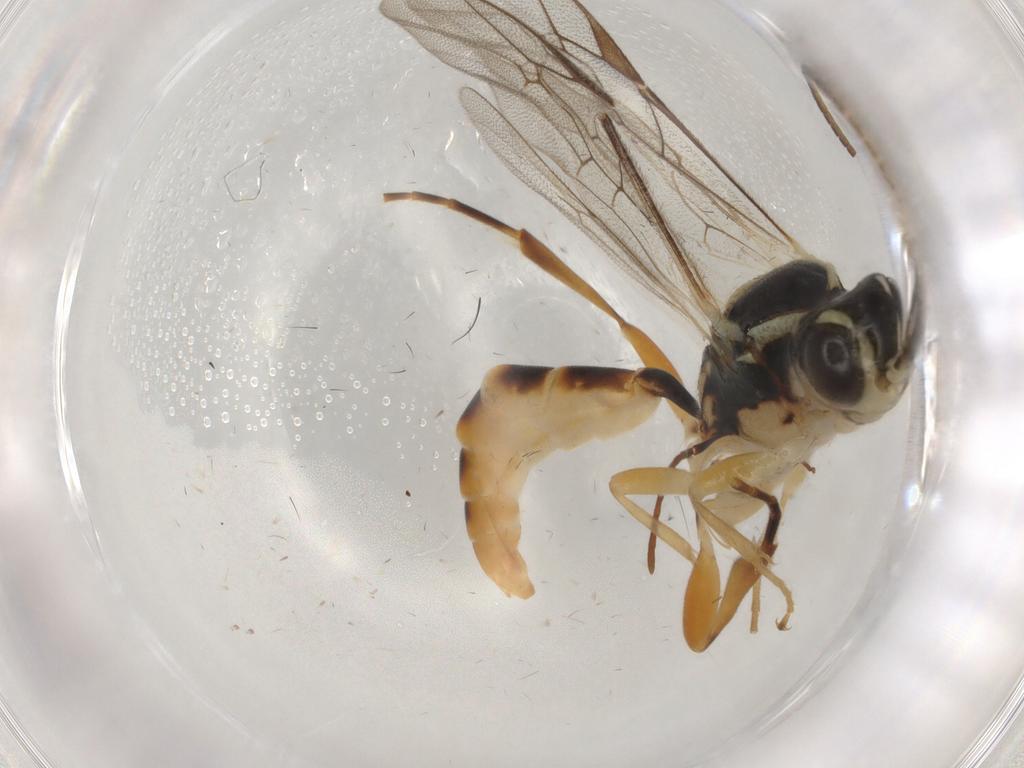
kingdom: Animalia
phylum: Arthropoda
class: Insecta
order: Hymenoptera
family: Ichneumonidae
